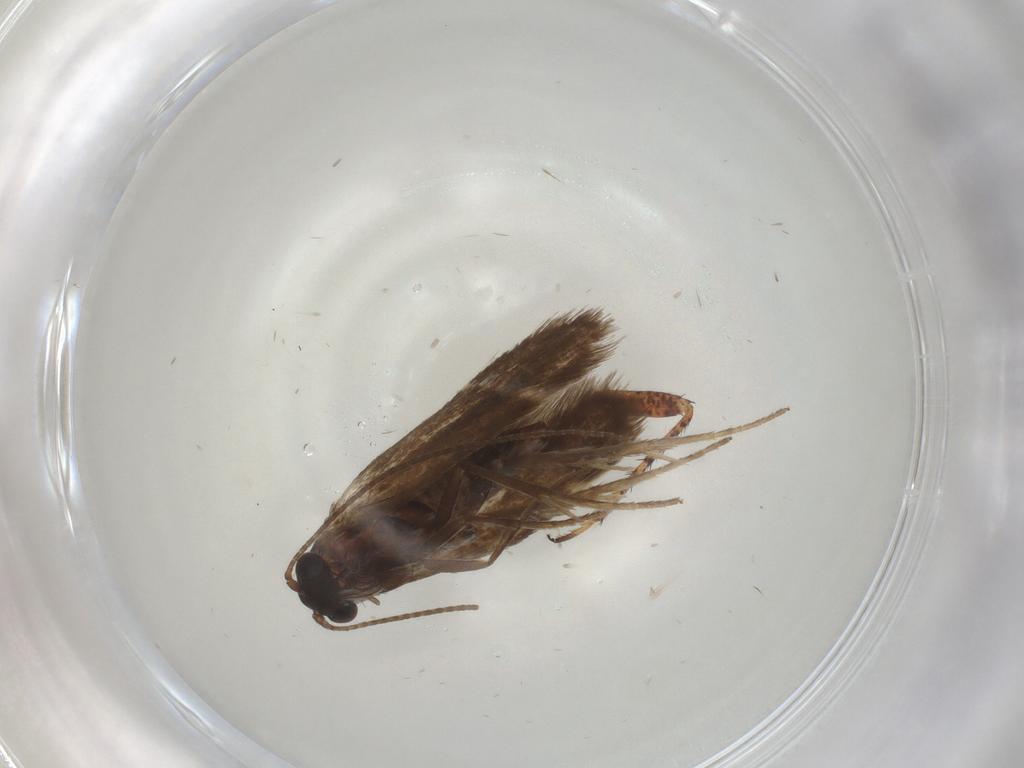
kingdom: Animalia
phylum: Arthropoda
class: Insecta
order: Lepidoptera
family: Adelidae
